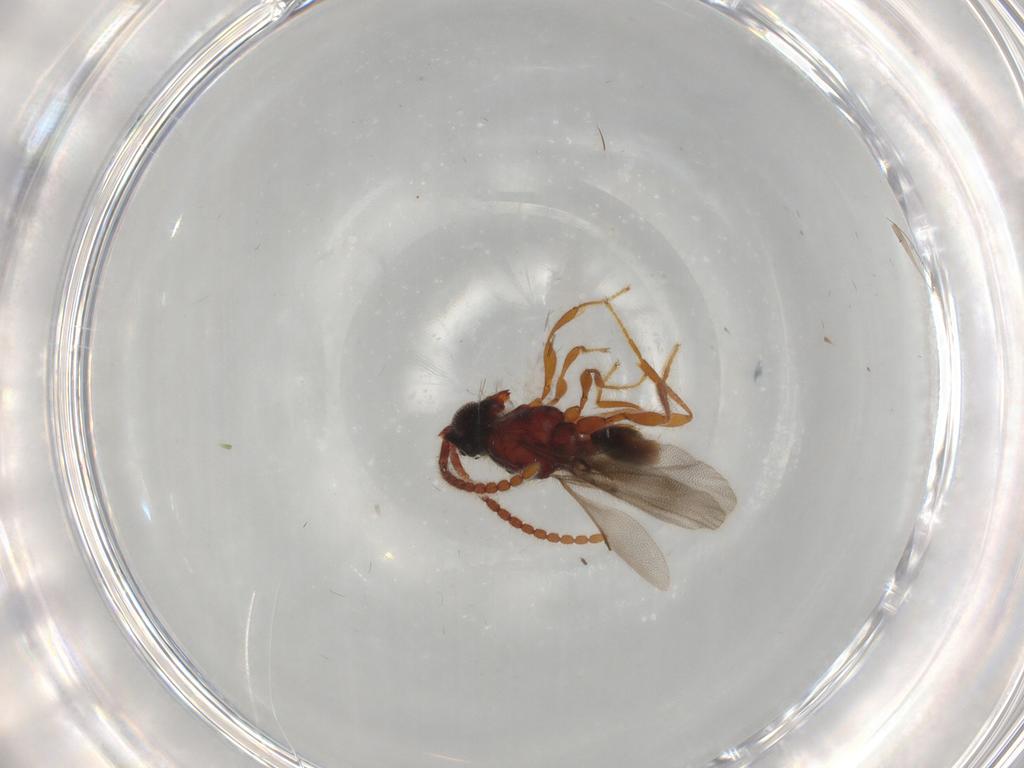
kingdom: Animalia
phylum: Arthropoda
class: Insecta
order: Hymenoptera
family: Diapriidae
